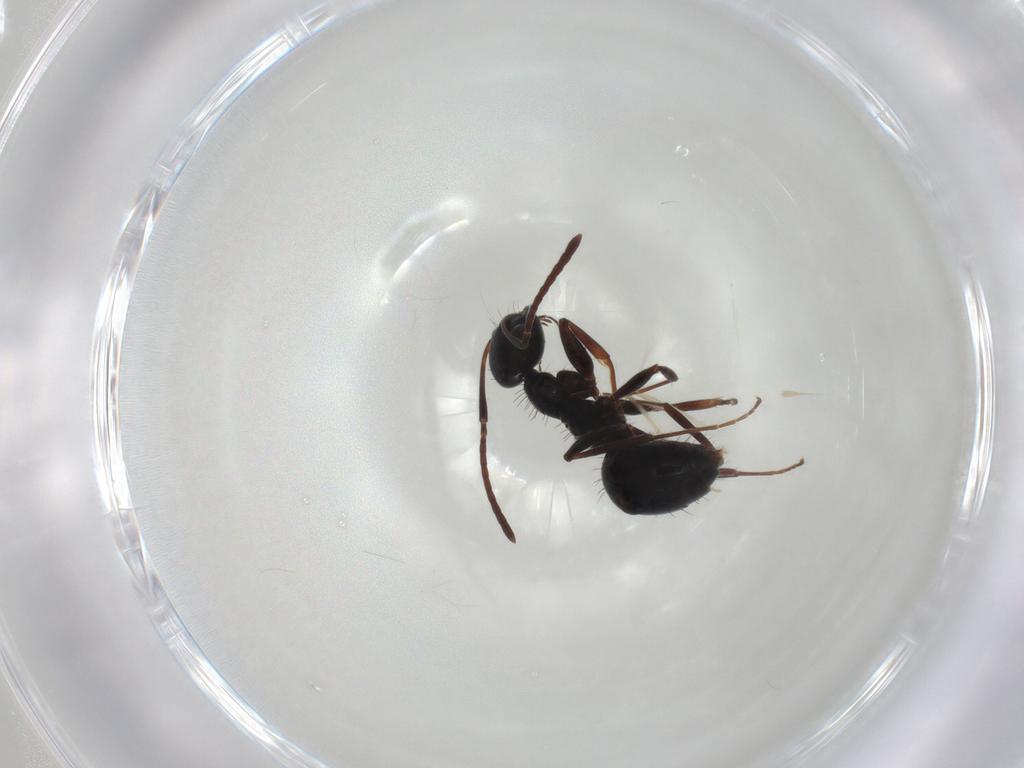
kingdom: Animalia
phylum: Arthropoda
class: Insecta
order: Hymenoptera
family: Formicidae
